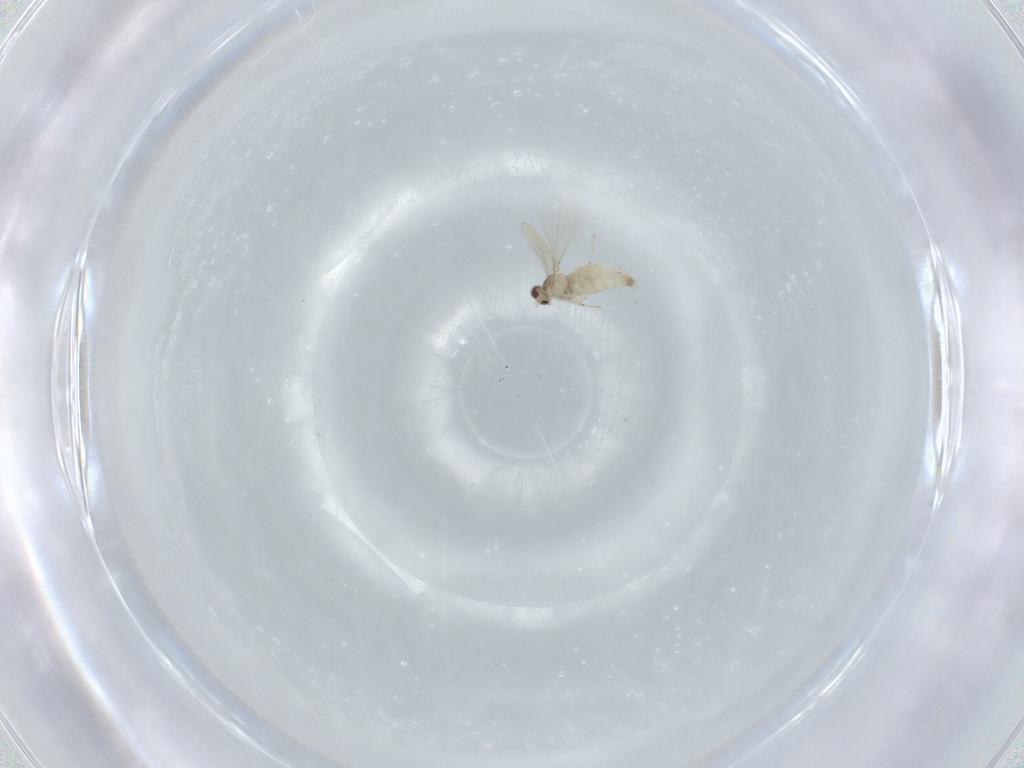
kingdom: Animalia
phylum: Arthropoda
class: Insecta
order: Diptera
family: Cecidomyiidae
